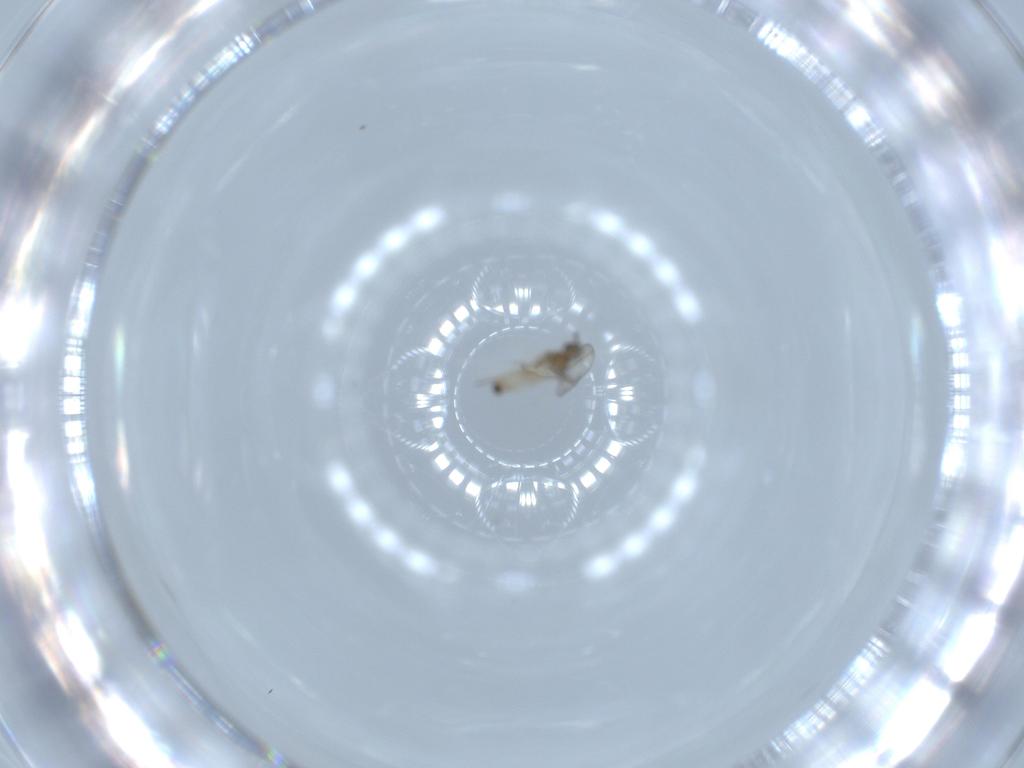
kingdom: Animalia
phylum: Arthropoda
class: Insecta
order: Diptera
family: Cecidomyiidae
